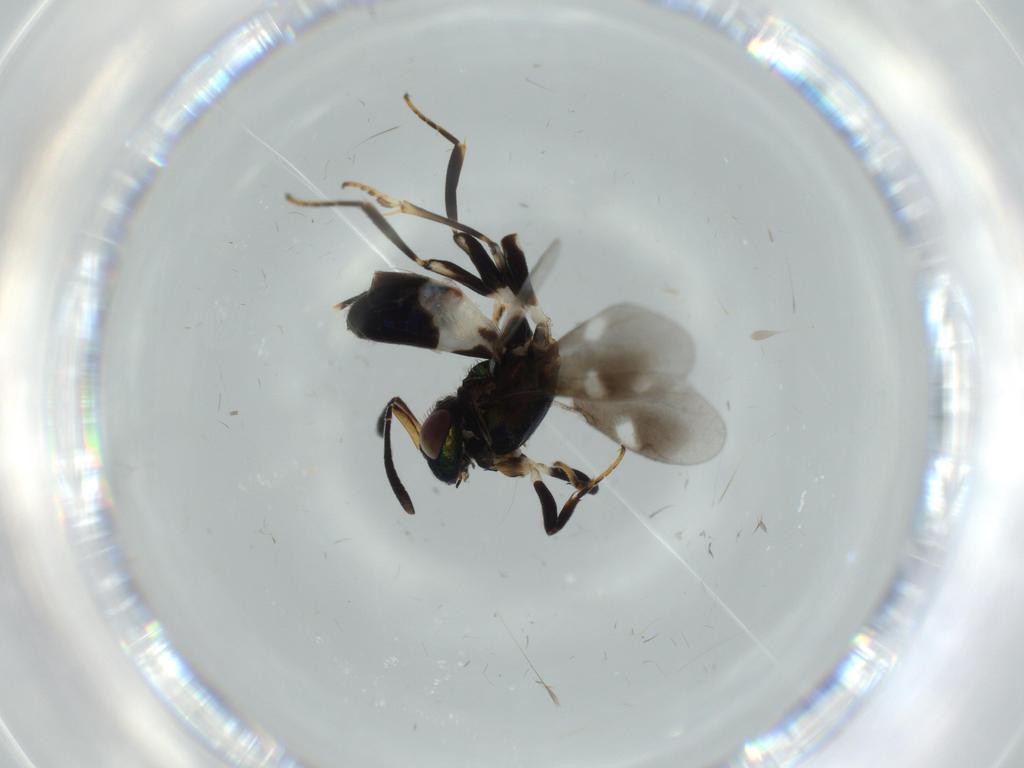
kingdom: Animalia
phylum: Arthropoda
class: Insecta
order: Hymenoptera
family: Eupelmidae
